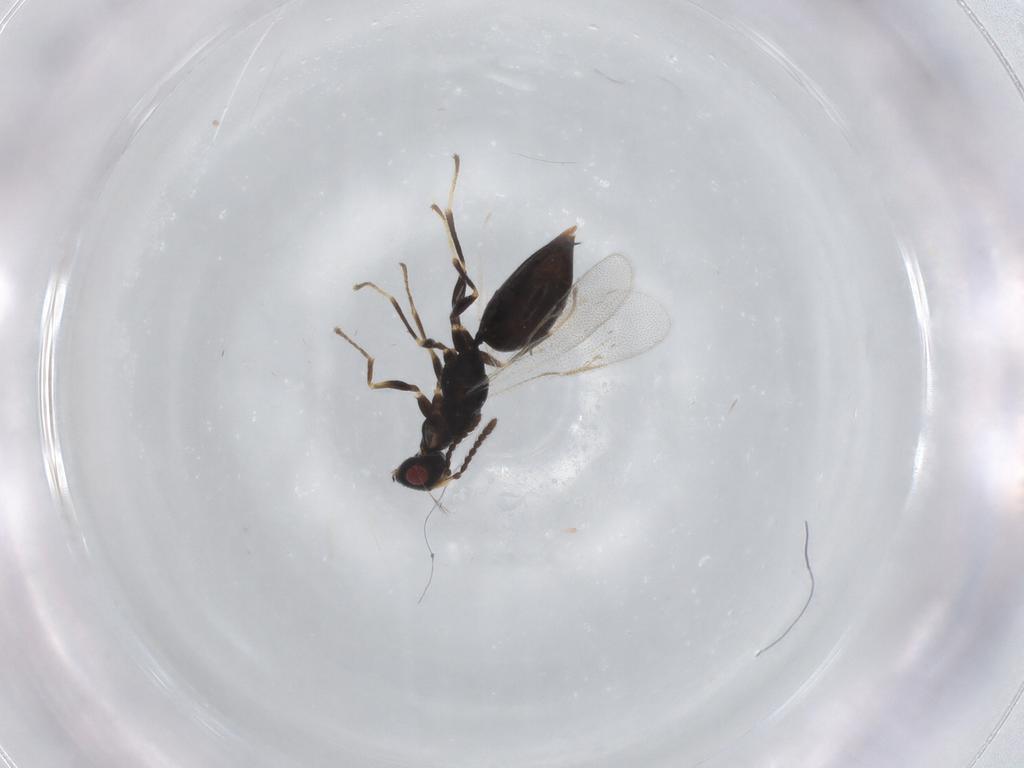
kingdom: Animalia
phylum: Arthropoda
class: Insecta
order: Hymenoptera
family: Eurytomidae
